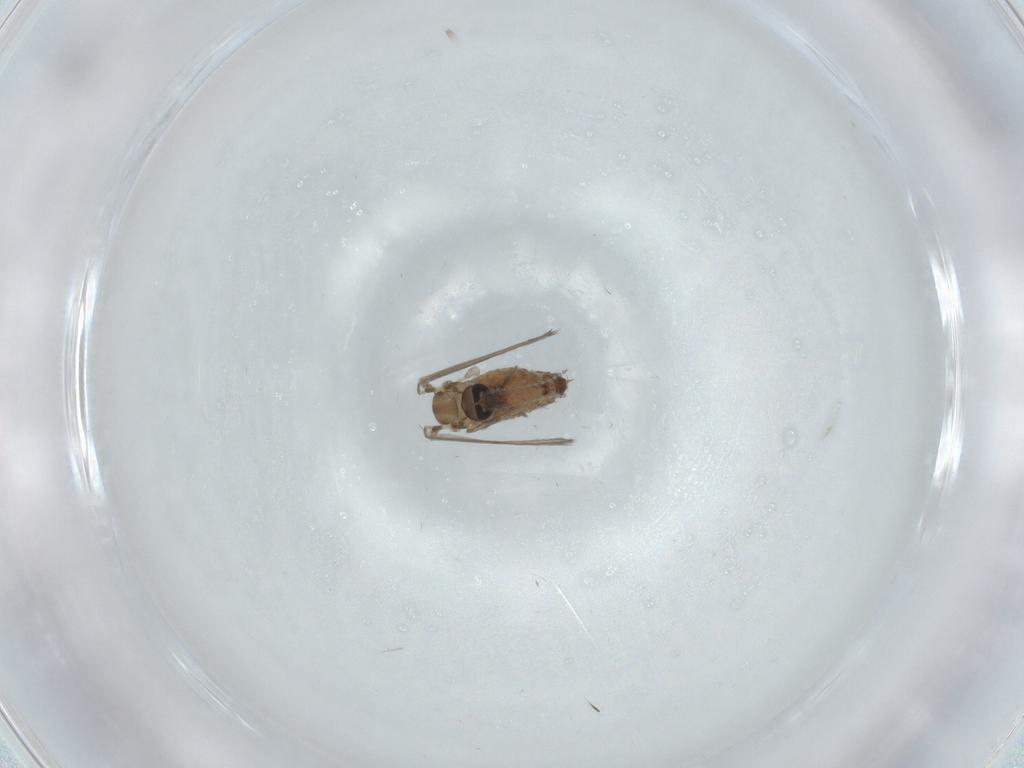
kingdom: Animalia
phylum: Arthropoda
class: Insecta
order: Diptera
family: Psychodidae
